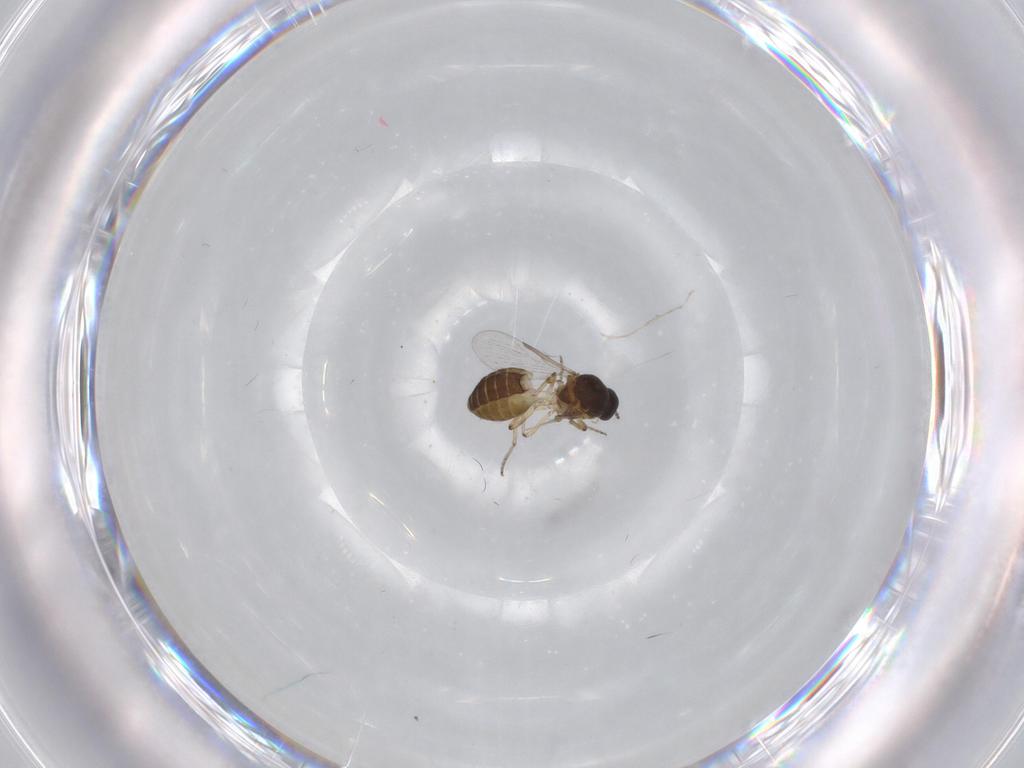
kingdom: Animalia
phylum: Arthropoda
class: Insecta
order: Diptera
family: Ceratopogonidae
